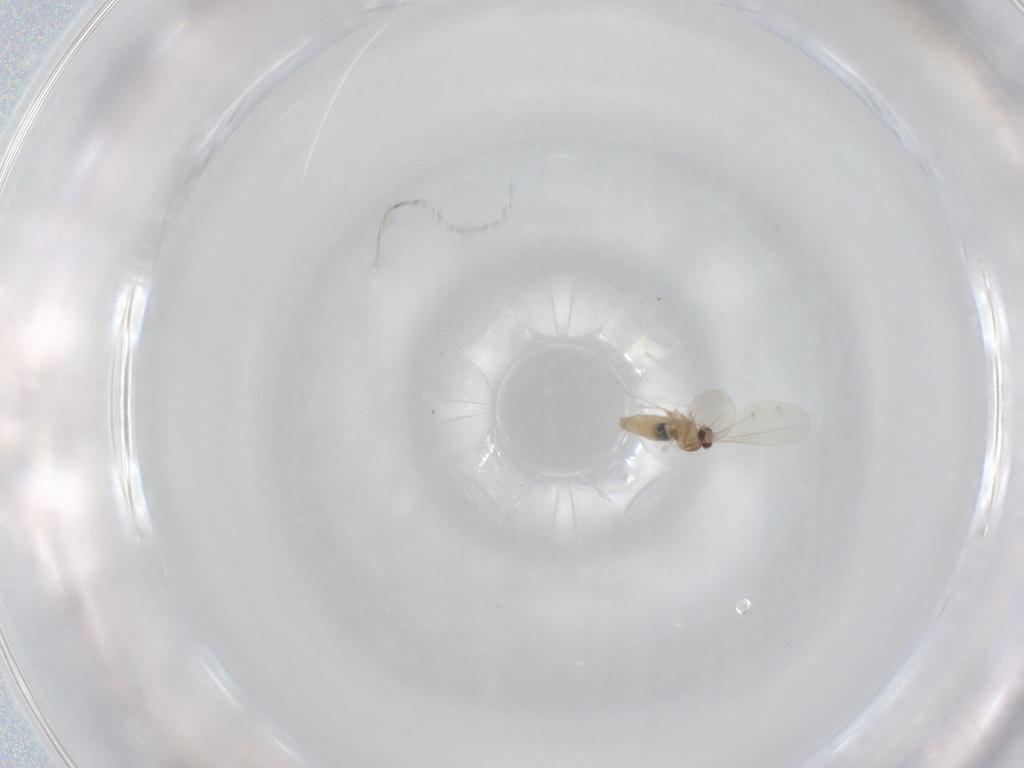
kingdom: Animalia
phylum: Arthropoda
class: Insecta
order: Diptera
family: Cecidomyiidae
